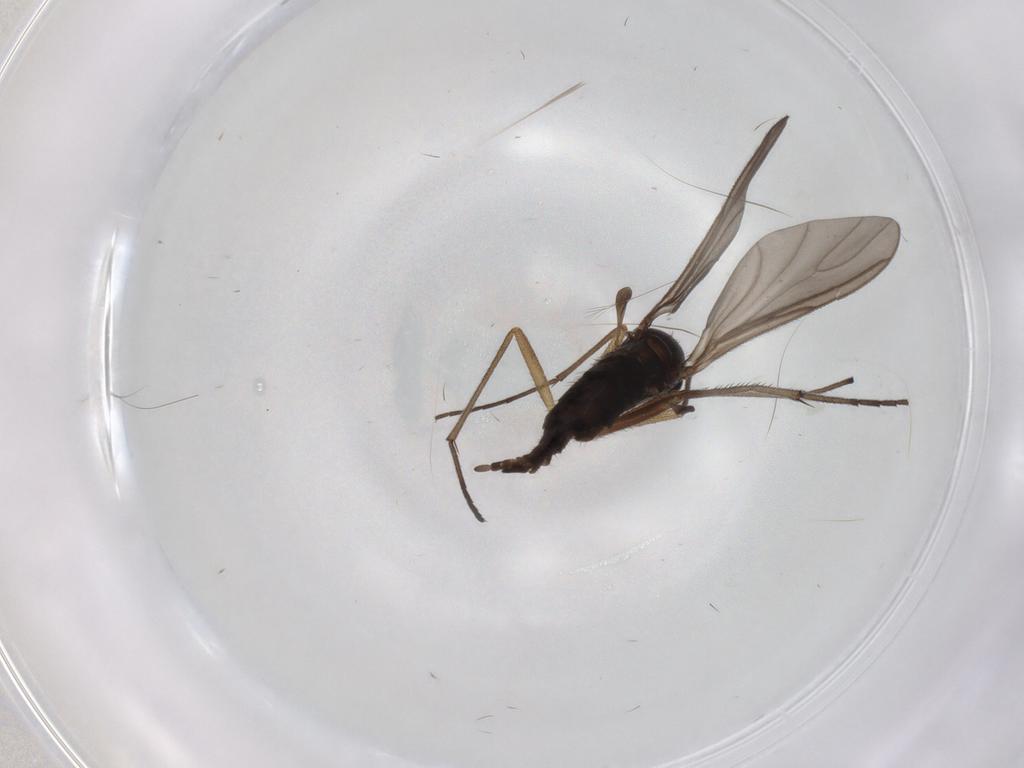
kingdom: Animalia
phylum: Arthropoda
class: Insecta
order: Diptera
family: Sciaridae
